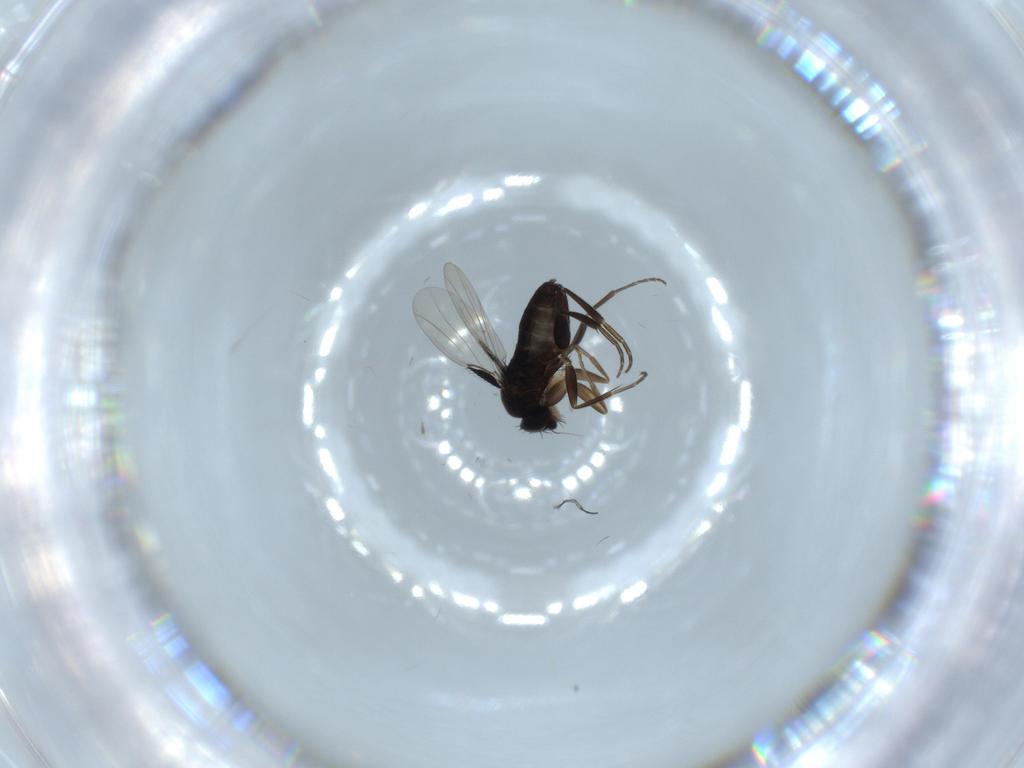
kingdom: Animalia
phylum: Arthropoda
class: Insecta
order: Diptera
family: Phoridae
